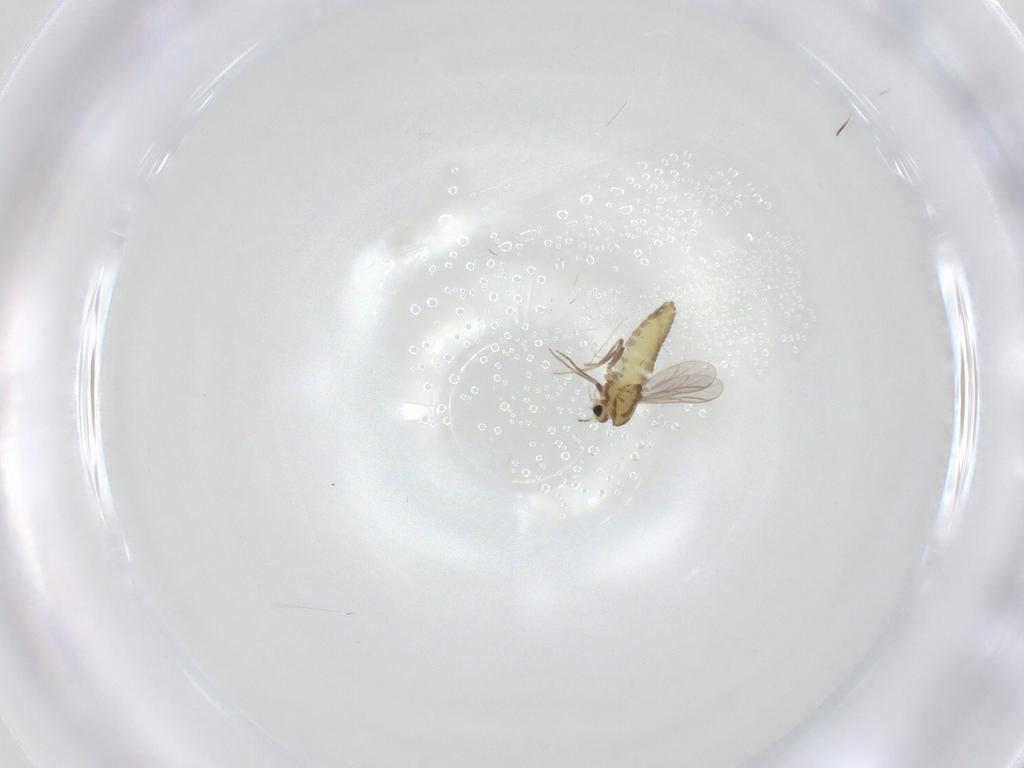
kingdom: Animalia
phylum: Arthropoda
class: Insecta
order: Diptera
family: Chironomidae
